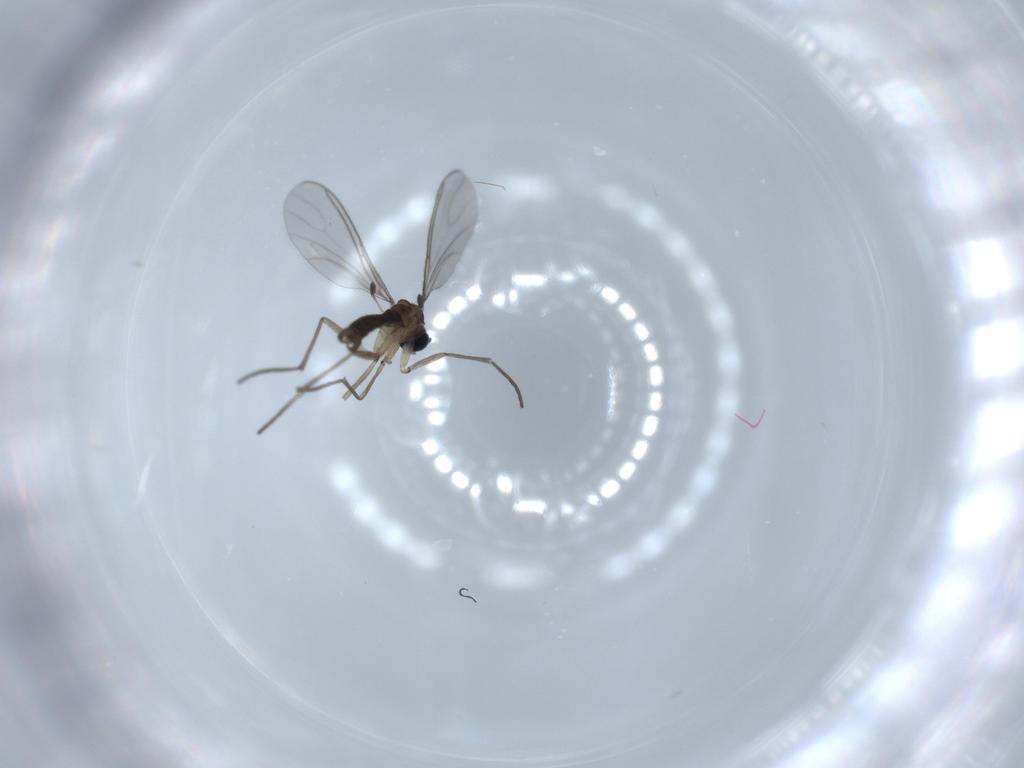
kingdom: Animalia
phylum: Arthropoda
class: Insecta
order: Diptera
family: Sciaridae
